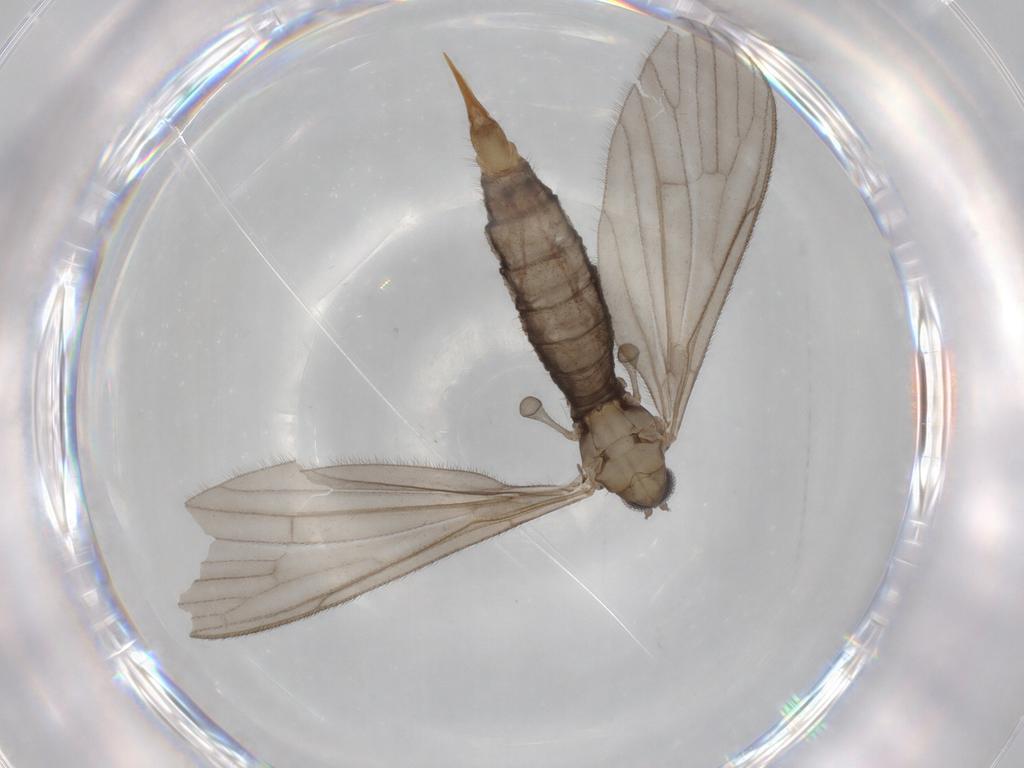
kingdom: Animalia
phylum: Arthropoda
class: Insecta
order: Diptera
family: Limoniidae
